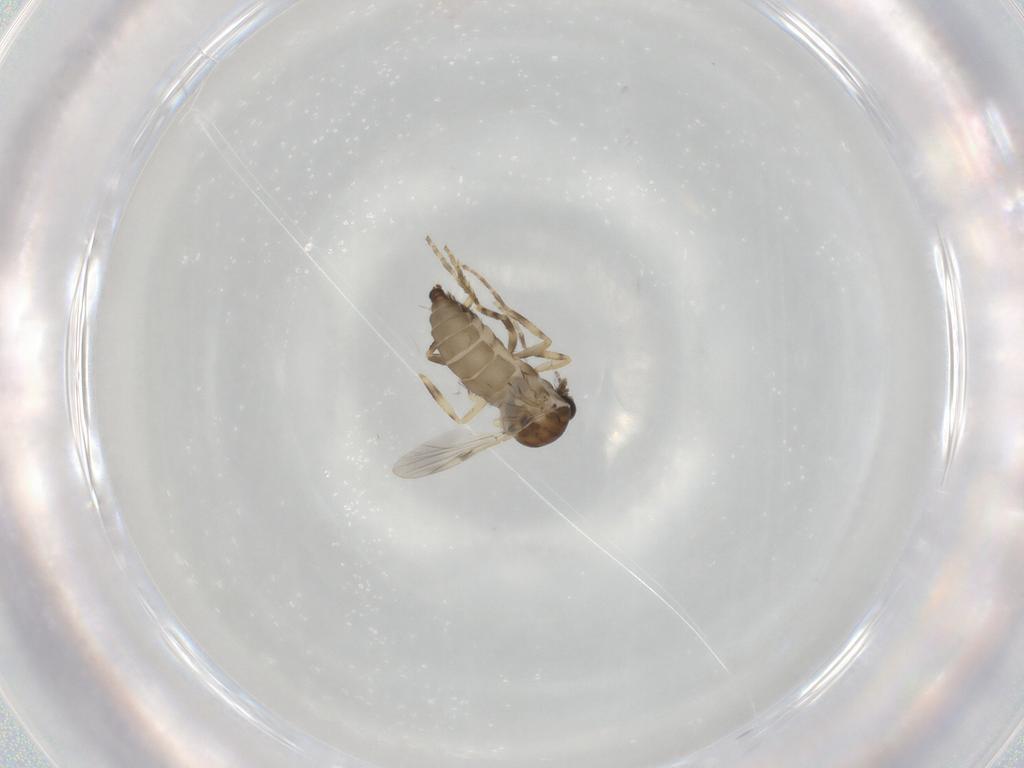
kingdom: Animalia
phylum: Arthropoda
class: Insecta
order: Diptera
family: Ceratopogonidae
